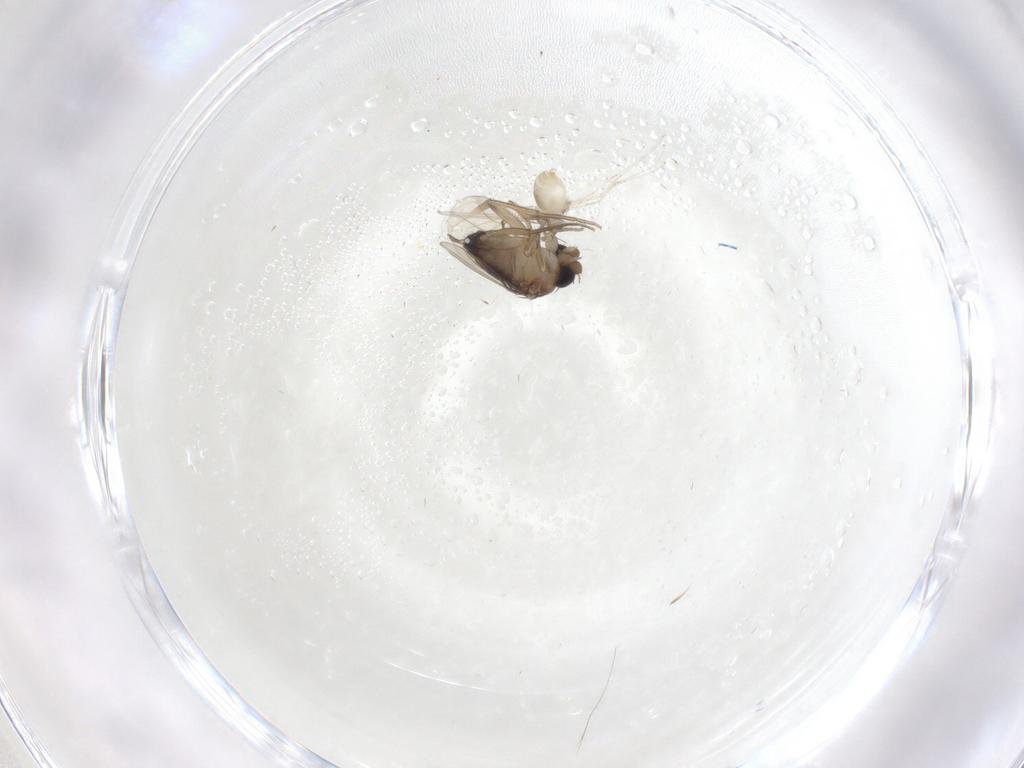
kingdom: Animalia
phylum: Arthropoda
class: Insecta
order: Diptera
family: Cecidomyiidae
